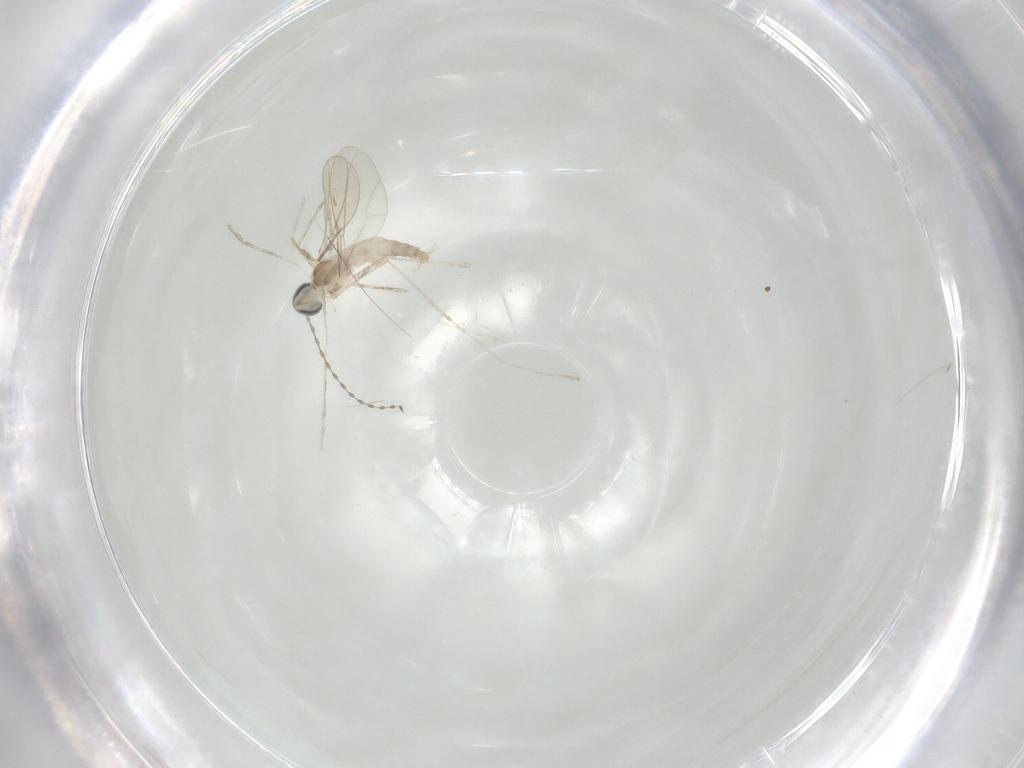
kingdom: Animalia
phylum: Arthropoda
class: Insecta
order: Diptera
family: Cecidomyiidae
